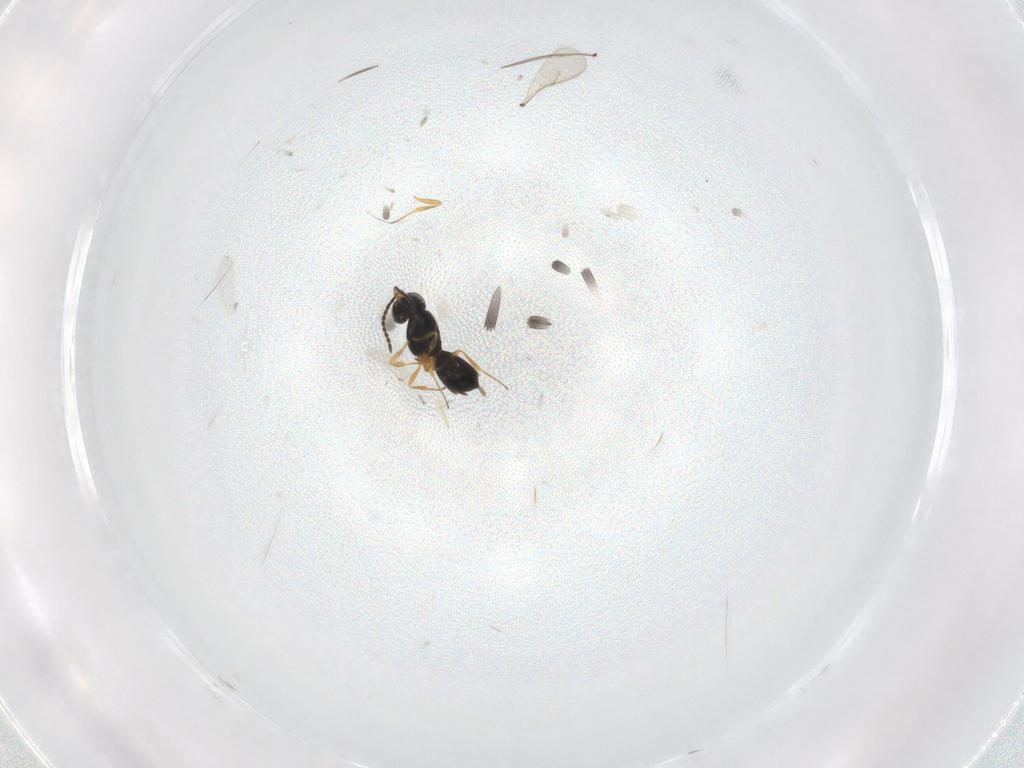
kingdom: Animalia
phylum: Arthropoda
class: Insecta
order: Hymenoptera
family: Scelionidae
